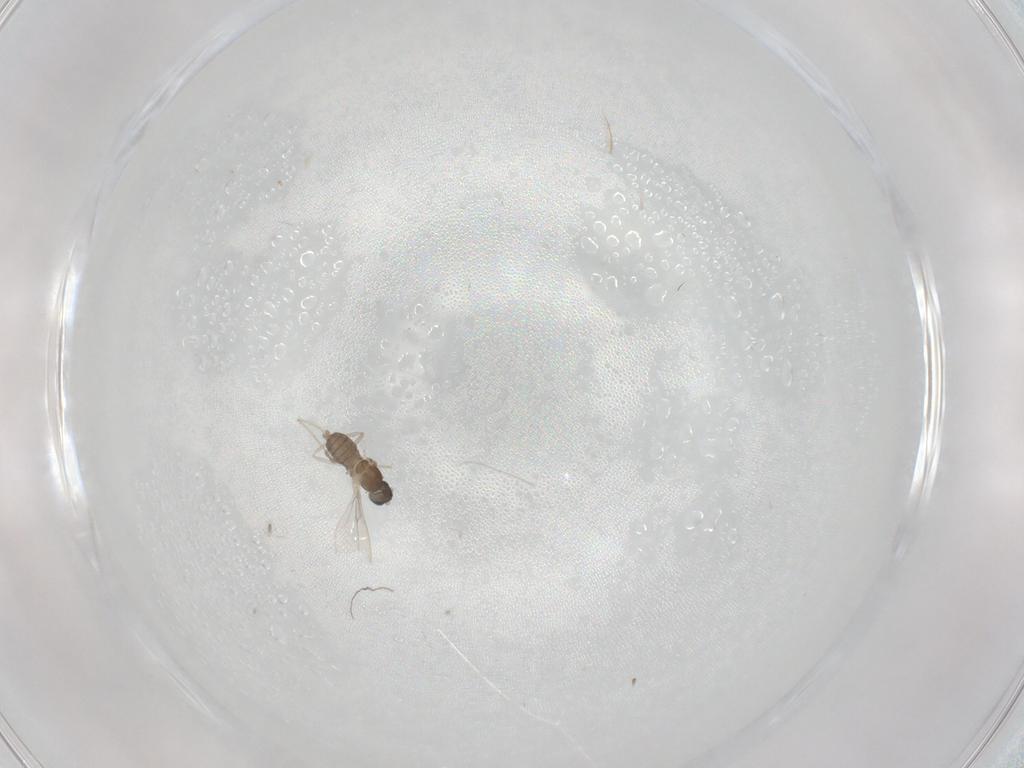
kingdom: Animalia
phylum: Arthropoda
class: Insecta
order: Diptera
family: Cecidomyiidae
